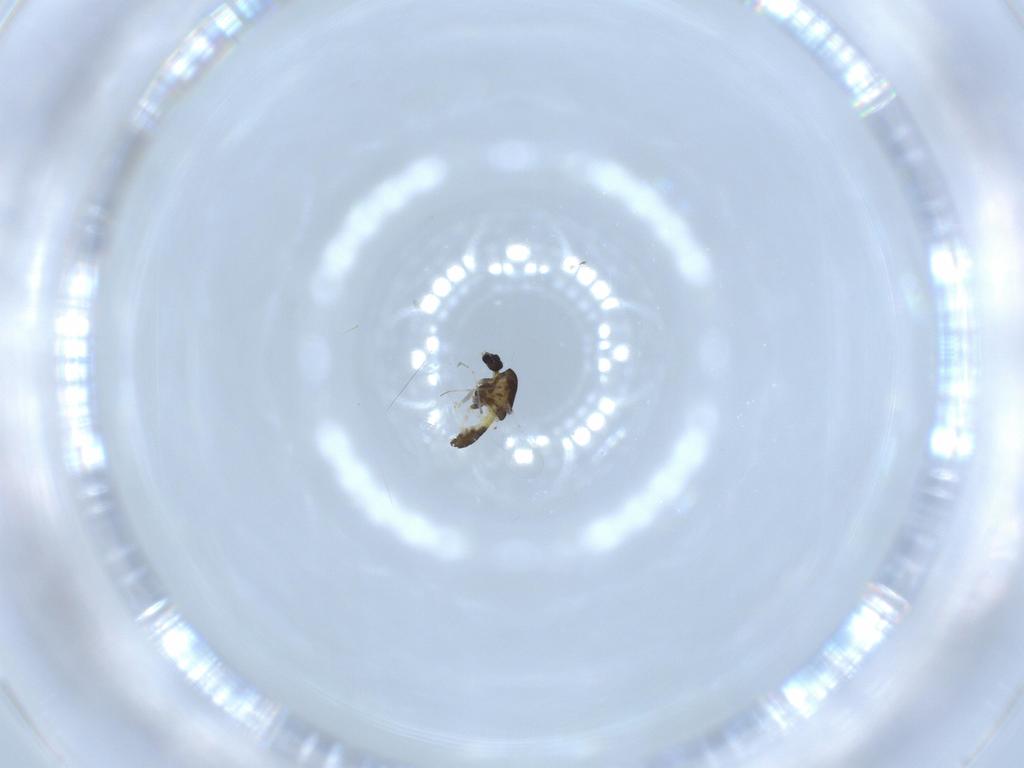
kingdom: Animalia
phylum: Arthropoda
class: Insecta
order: Diptera
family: Chironomidae
